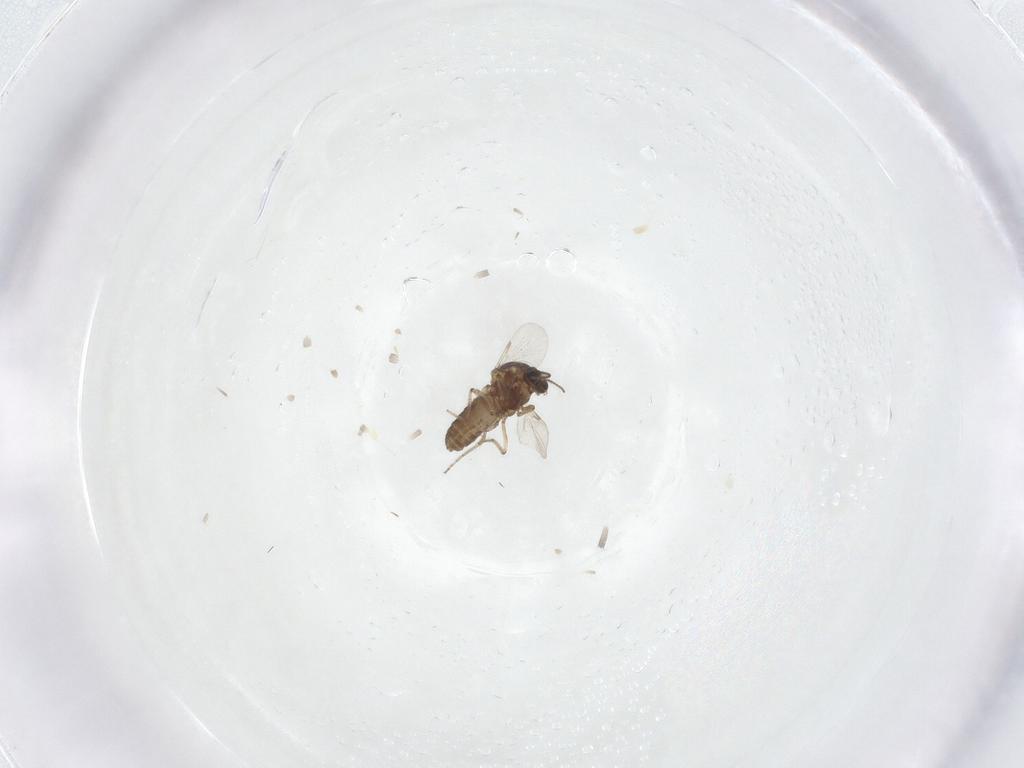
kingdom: Animalia
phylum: Arthropoda
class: Insecta
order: Diptera
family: Ceratopogonidae
